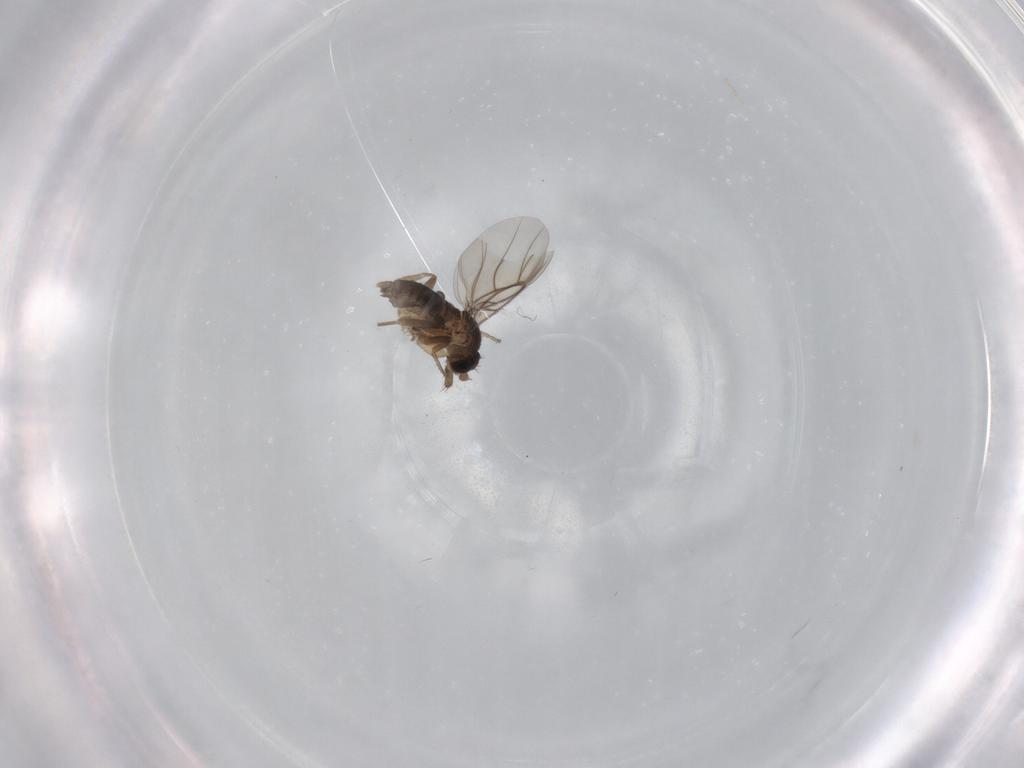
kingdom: Animalia
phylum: Arthropoda
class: Insecta
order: Diptera
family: Phoridae
